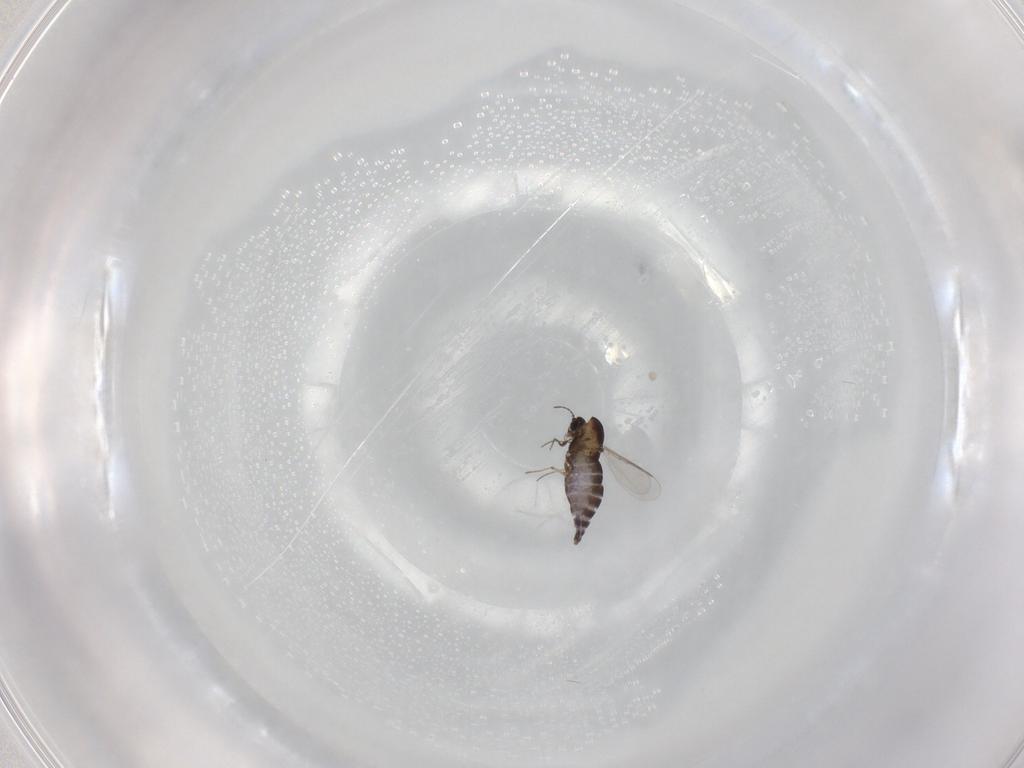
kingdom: Animalia
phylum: Arthropoda
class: Insecta
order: Diptera
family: Chironomidae
